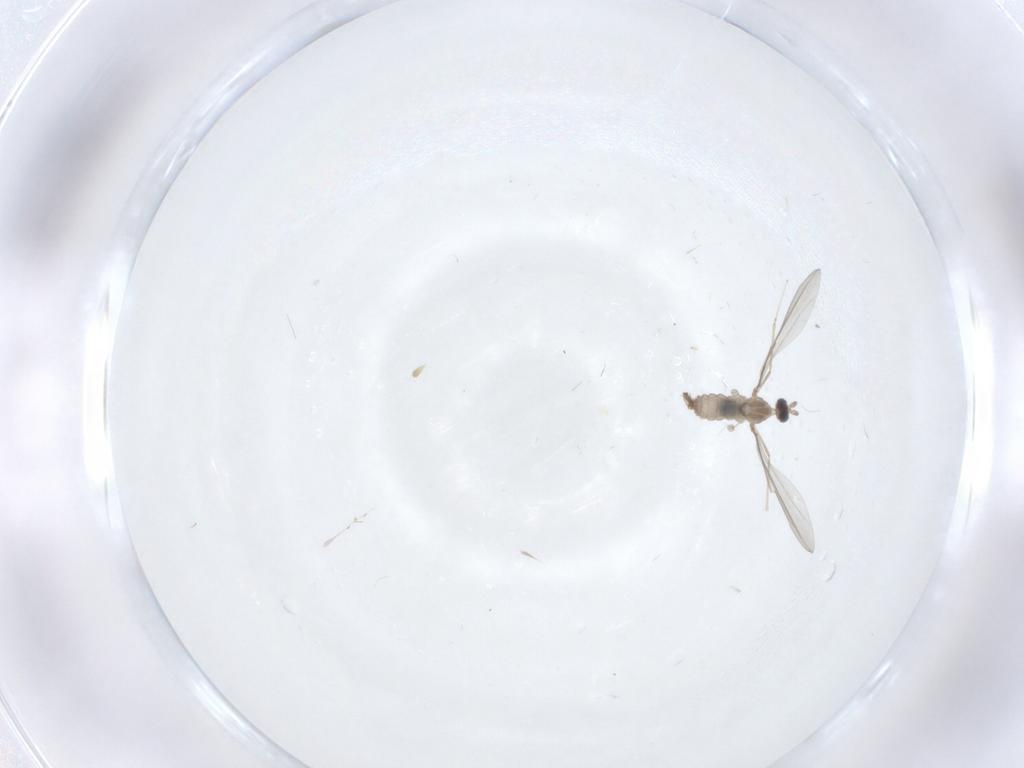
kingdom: Animalia
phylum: Arthropoda
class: Insecta
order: Diptera
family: Cecidomyiidae
